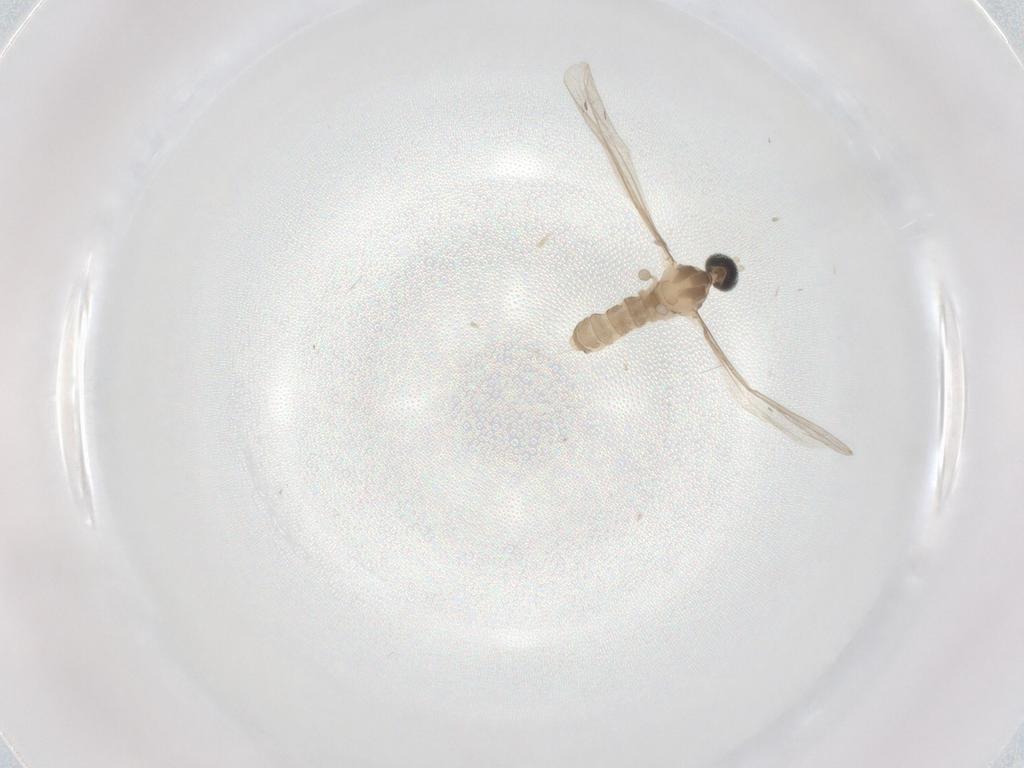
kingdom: Animalia
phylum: Arthropoda
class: Insecta
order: Diptera
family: Cecidomyiidae
